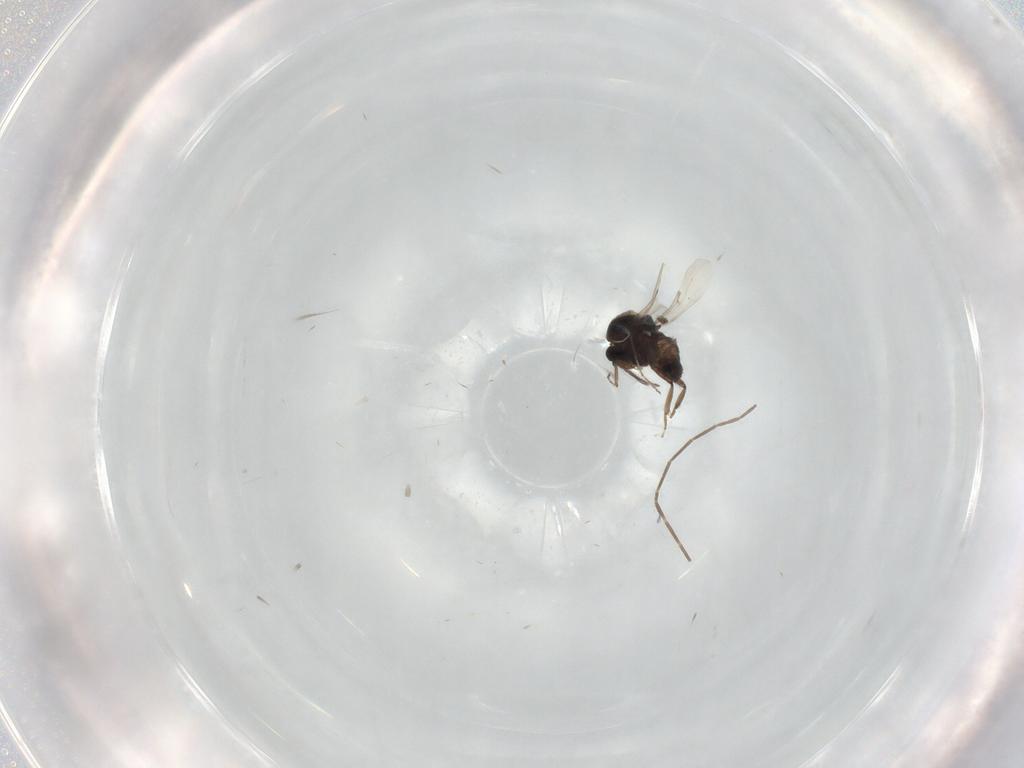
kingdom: Animalia
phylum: Arthropoda
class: Insecta
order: Diptera
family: Ceratopogonidae
